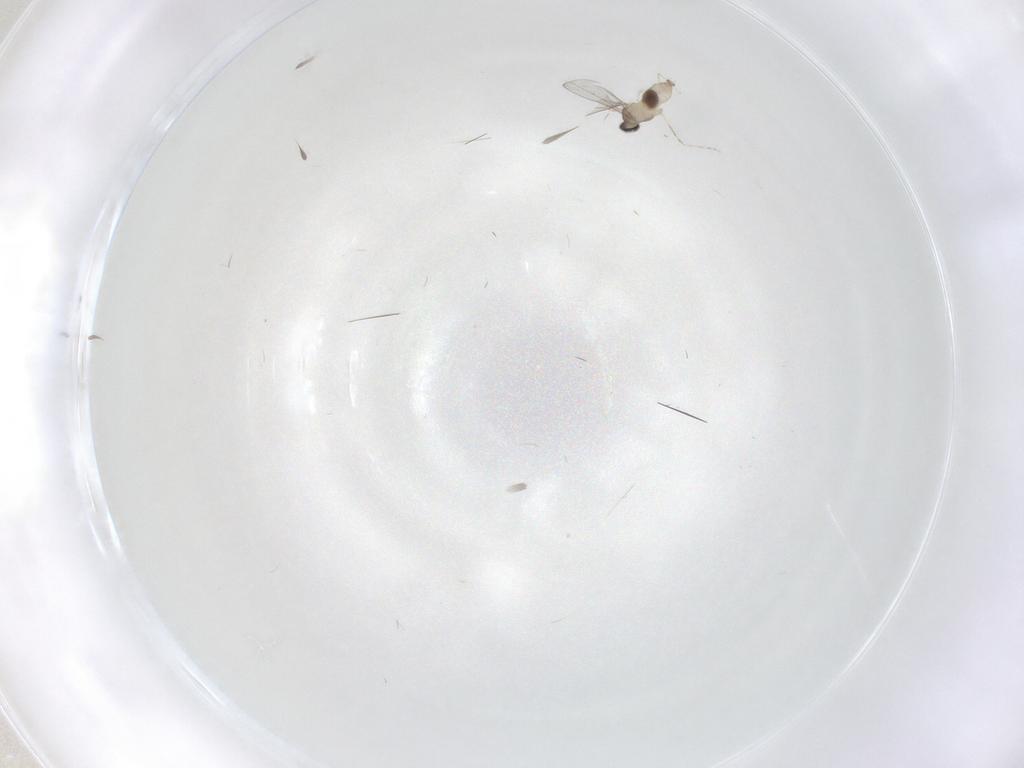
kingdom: Animalia
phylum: Arthropoda
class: Insecta
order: Diptera
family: Cecidomyiidae
